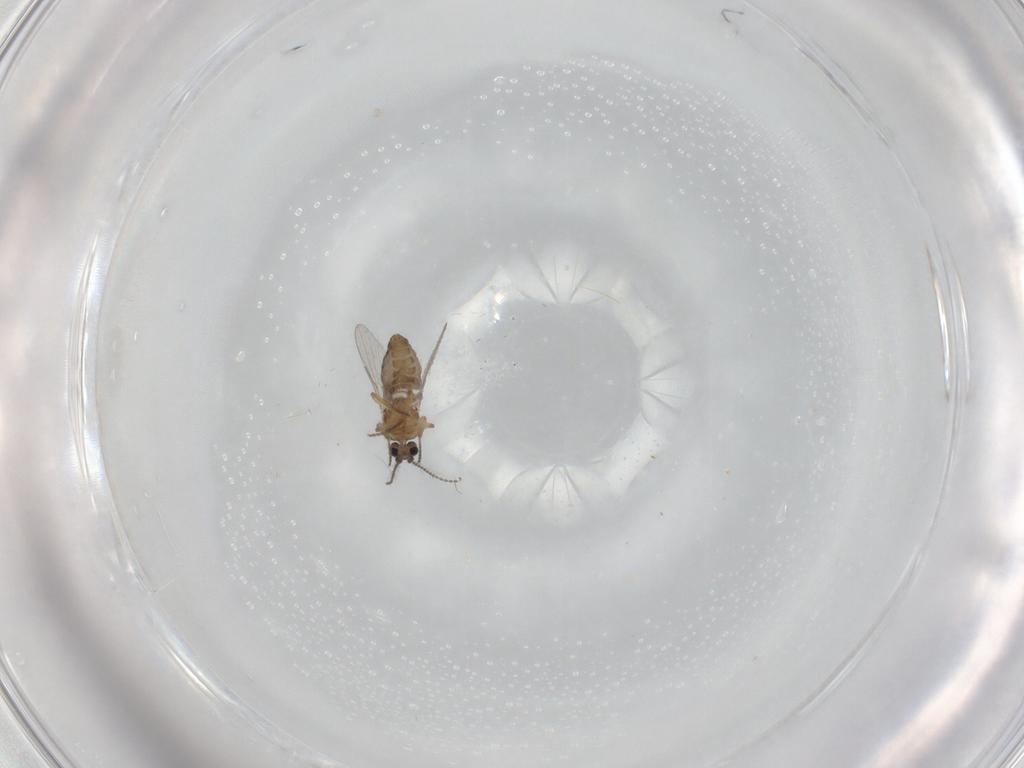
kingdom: Animalia
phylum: Arthropoda
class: Insecta
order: Diptera
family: Ceratopogonidae
